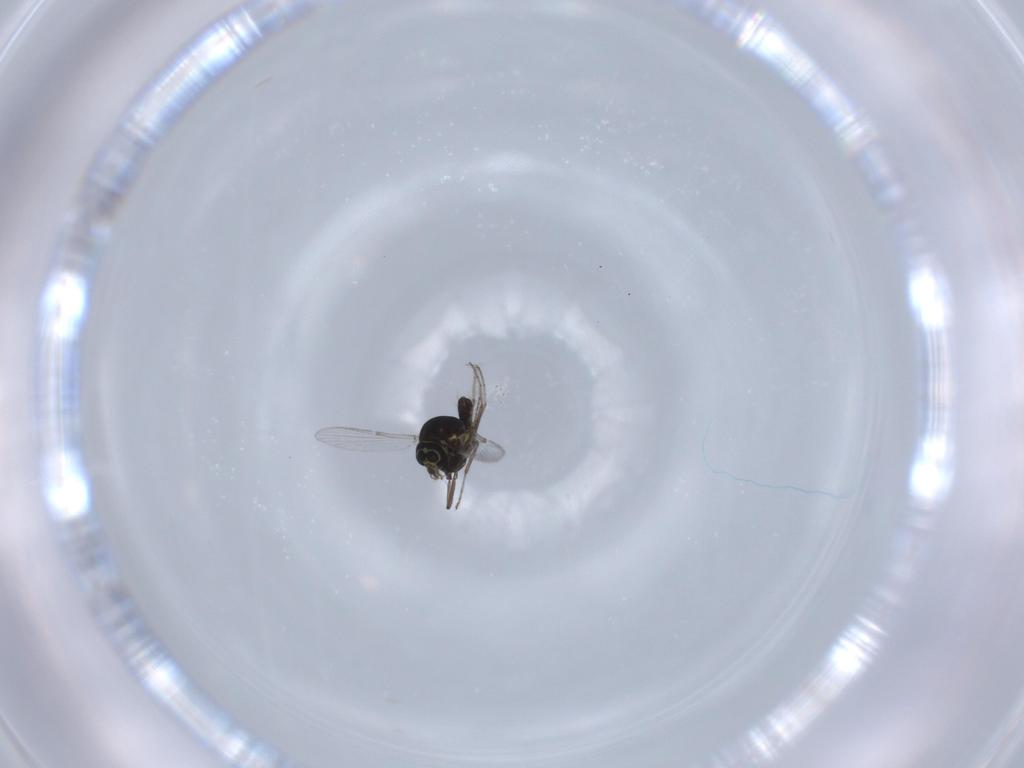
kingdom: Animalia
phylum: Arthropoda
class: Insecta
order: Diptera
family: Ceratopogonidae
